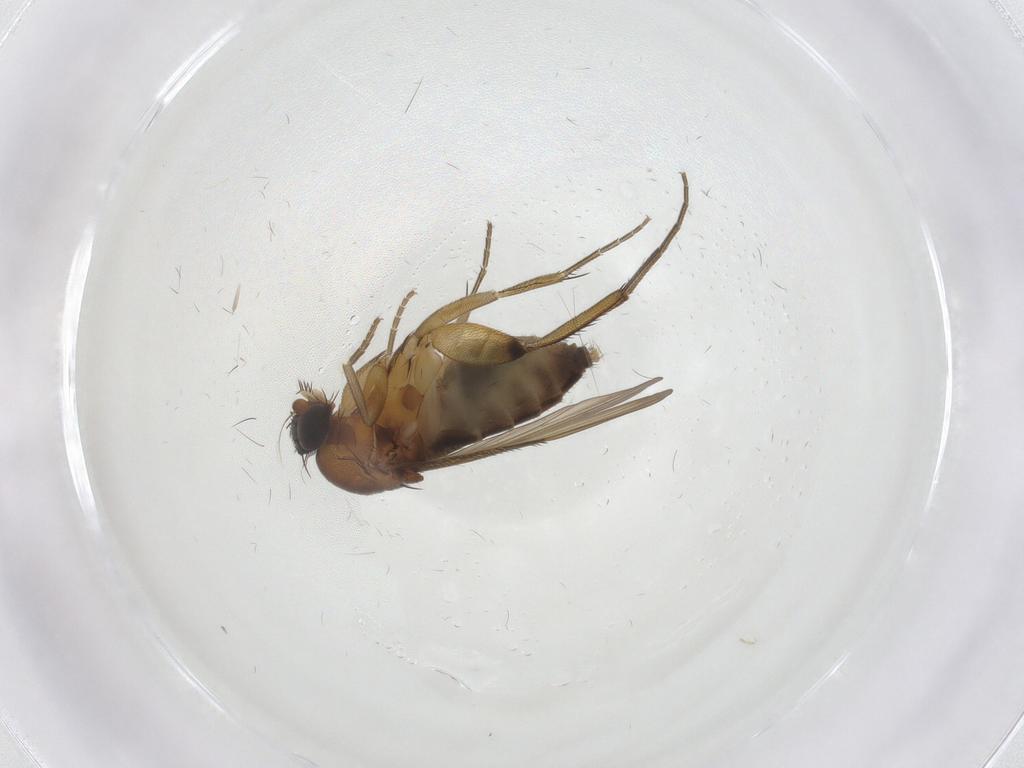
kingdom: Animalia
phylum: Arthropoda
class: Insecta
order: Diptera
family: Phoridae
